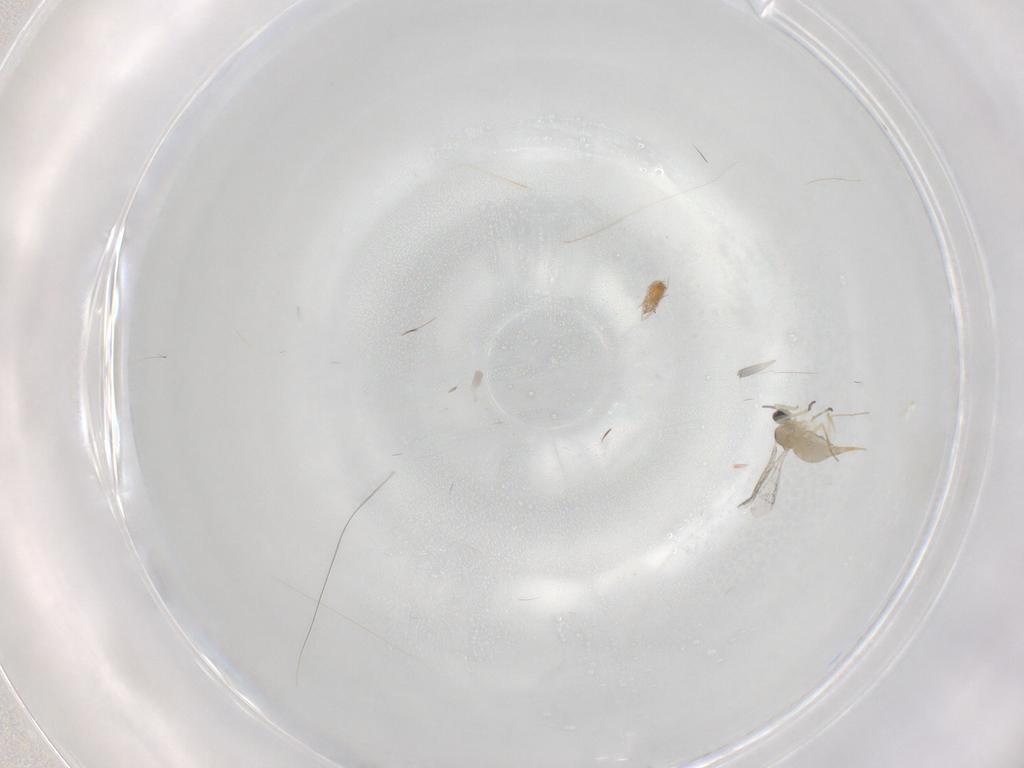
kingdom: Animalia
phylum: Arthropoda
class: Insecta
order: Diptera
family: Cecidomyiidae
